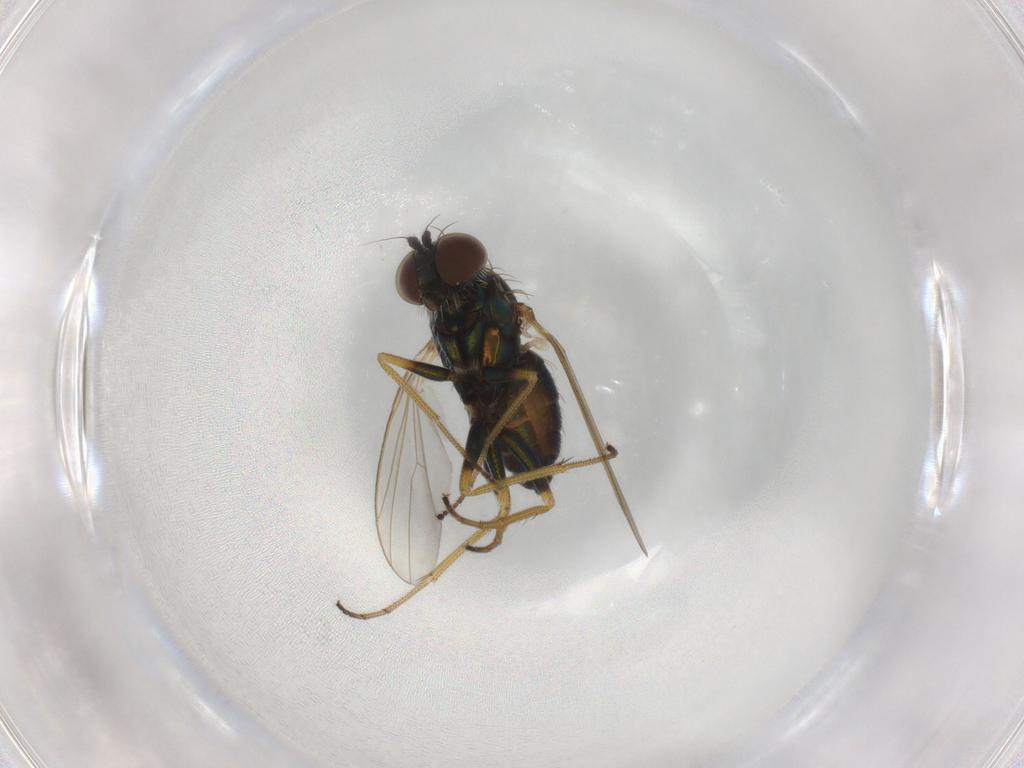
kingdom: Animalia
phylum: Arthropoda
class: Insecta
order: Diptera
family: Dolichopodidae
